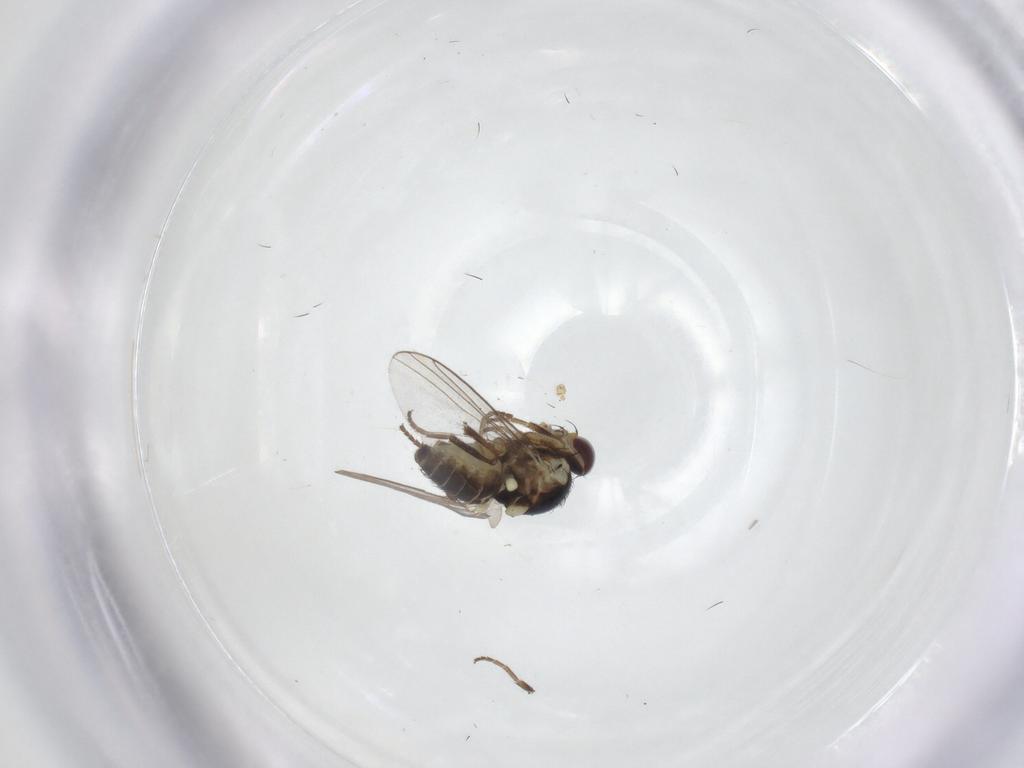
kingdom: Animalia
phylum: Arthropoda
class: Insecta
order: Diptera
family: Agromyzidae
